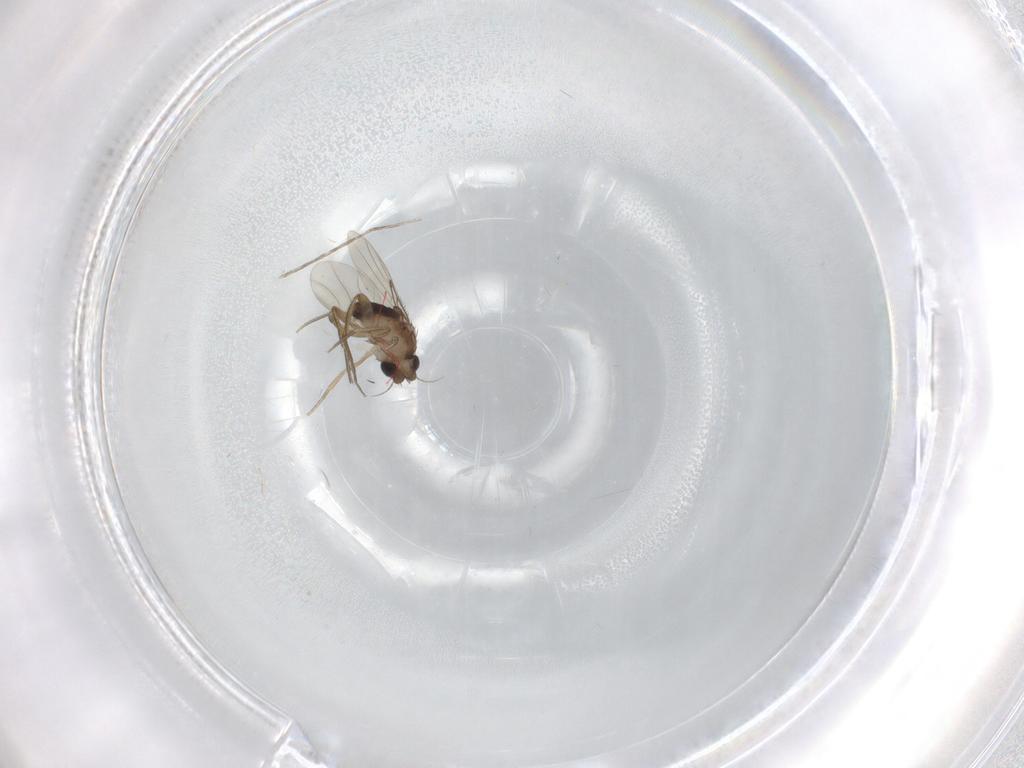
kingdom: Animalia
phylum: Arthropoda
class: Insecta
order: Diptera
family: Phoridae
